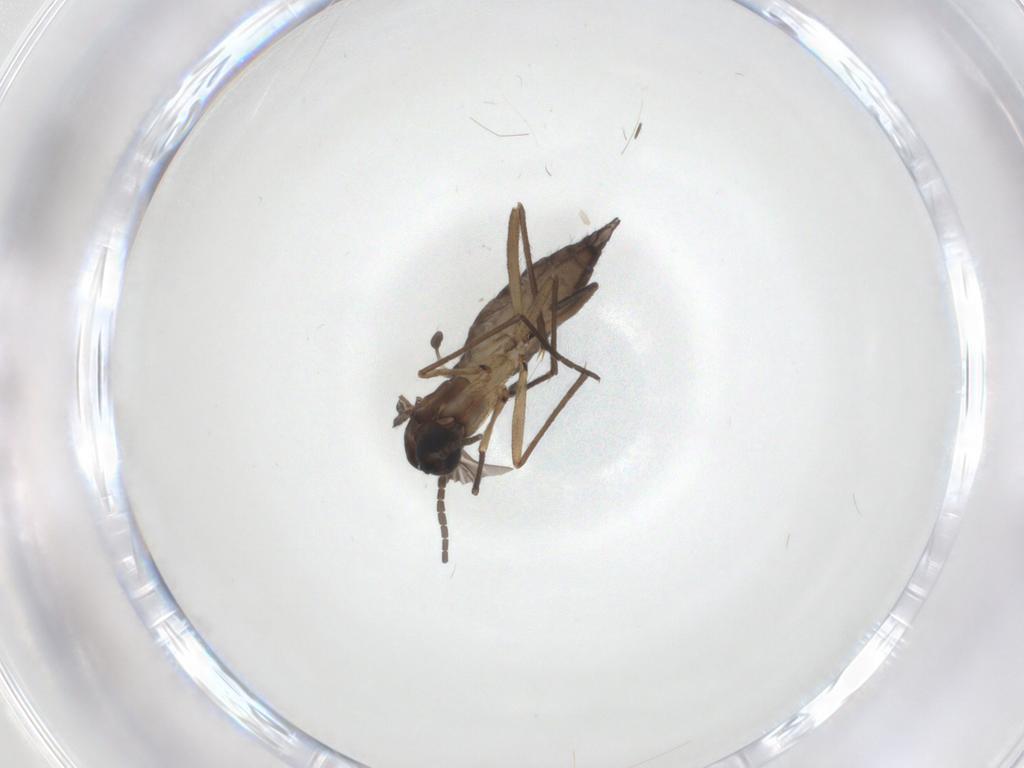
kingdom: Animalia
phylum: Arthropoda
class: Insecta
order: Diptera
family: Sciaridae
